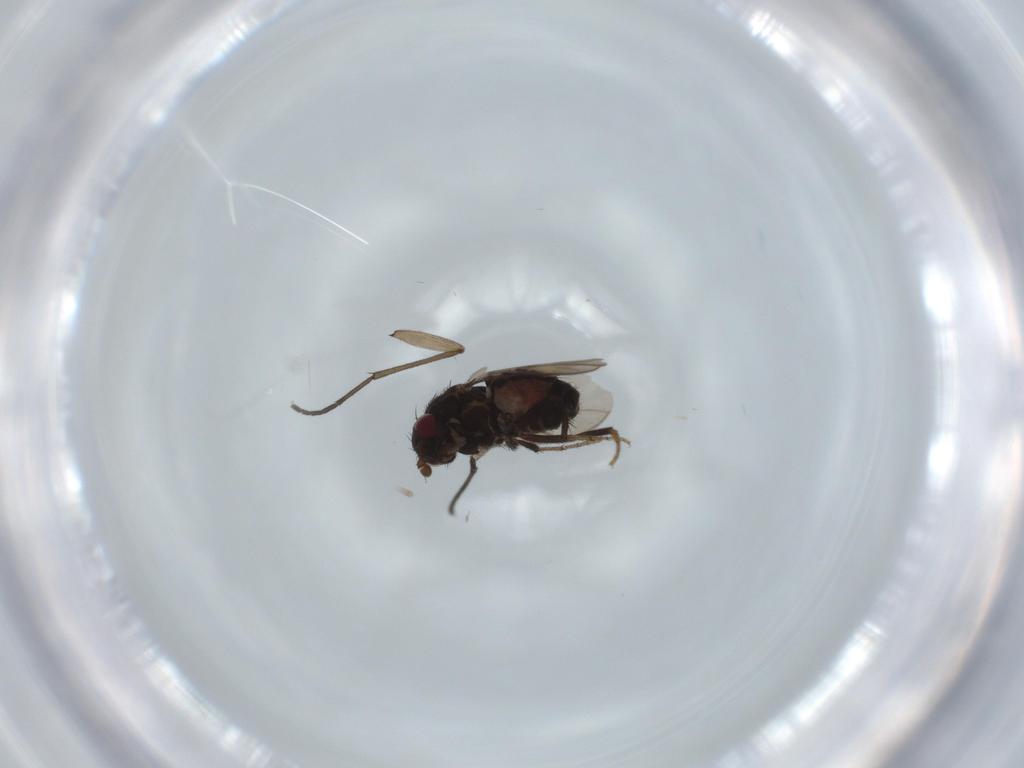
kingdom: Animalia
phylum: Arthropoda
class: Insecta
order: Diptera
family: Sphaeroceridae
